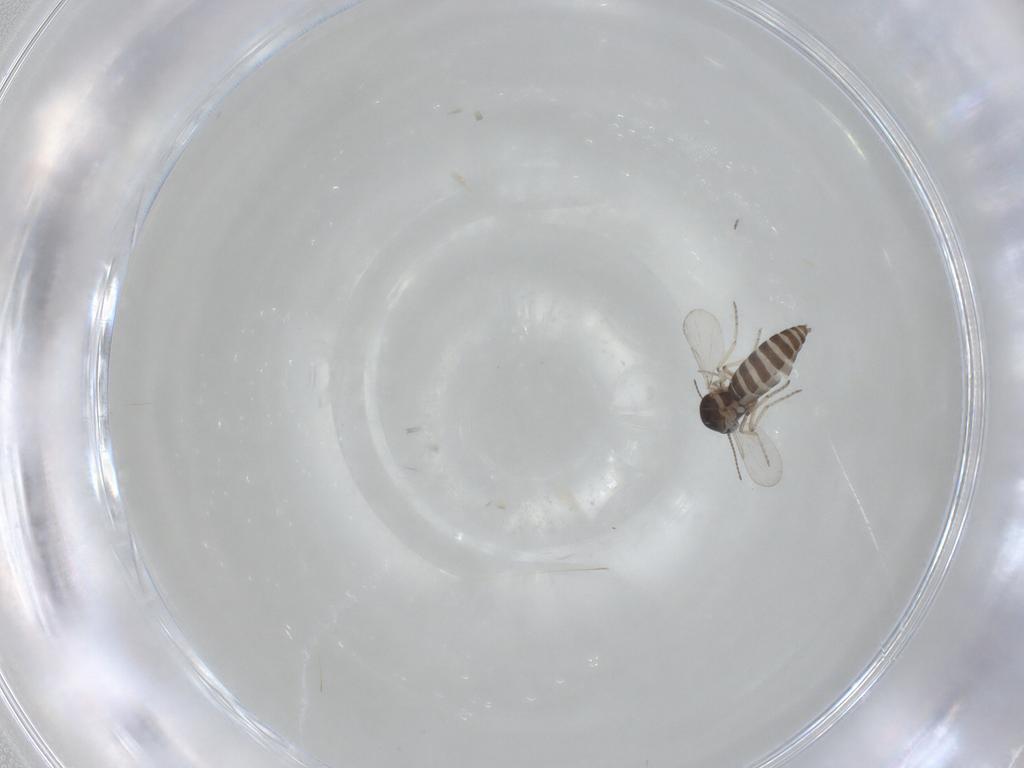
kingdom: Animalia
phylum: Arthropoda
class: Insecta
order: Diptera
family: Ceratopogonidae
